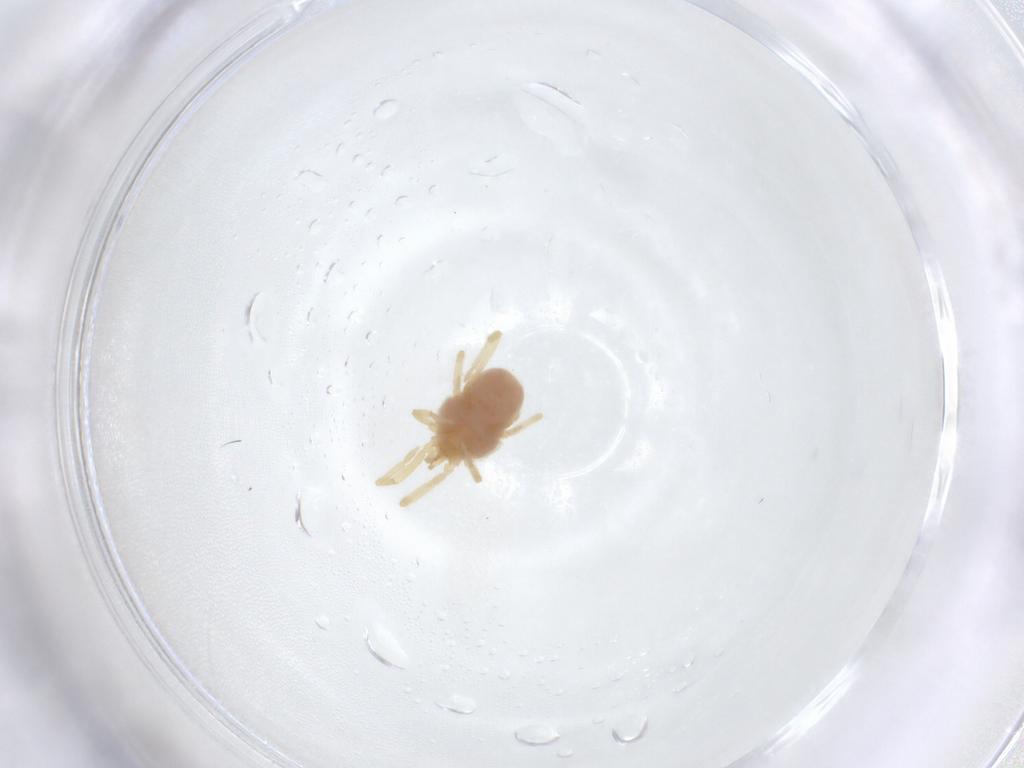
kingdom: Animalia
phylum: Arthropoda
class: Arachnida
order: Trombidiformes
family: Erythraeidae
